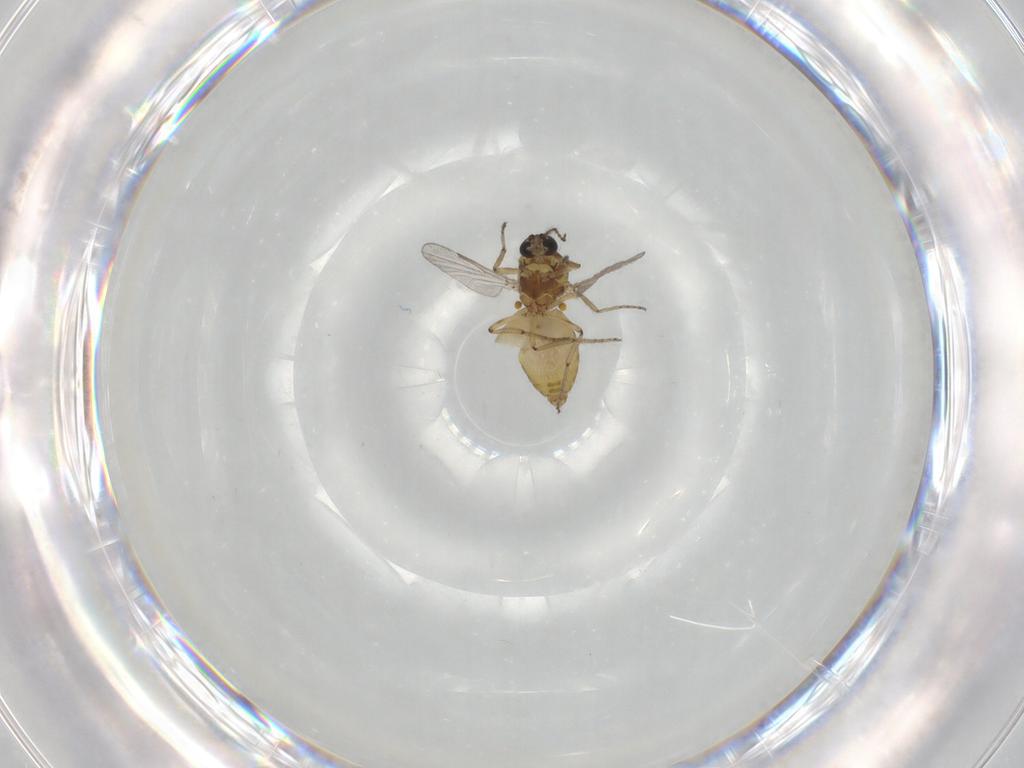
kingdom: Animalia
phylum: Arthropoda
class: Insecta
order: Diptera
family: Ceratopogonidae
